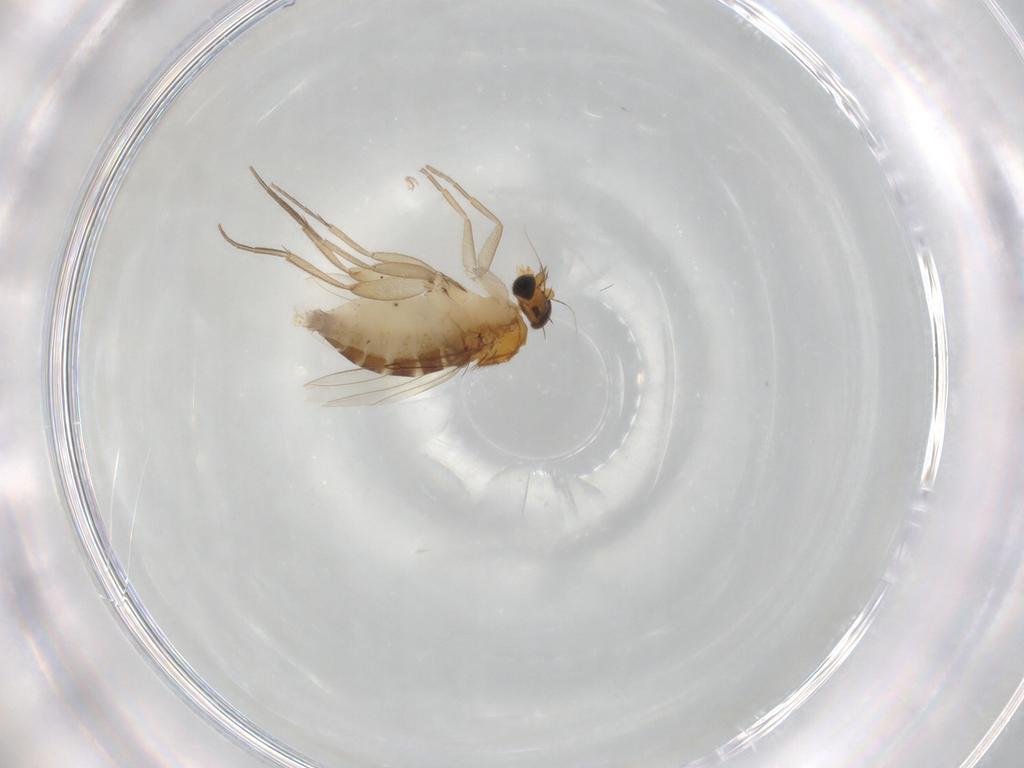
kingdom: Animalia
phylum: Arthropoda
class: Insecta
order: Diptera
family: Phoridae
